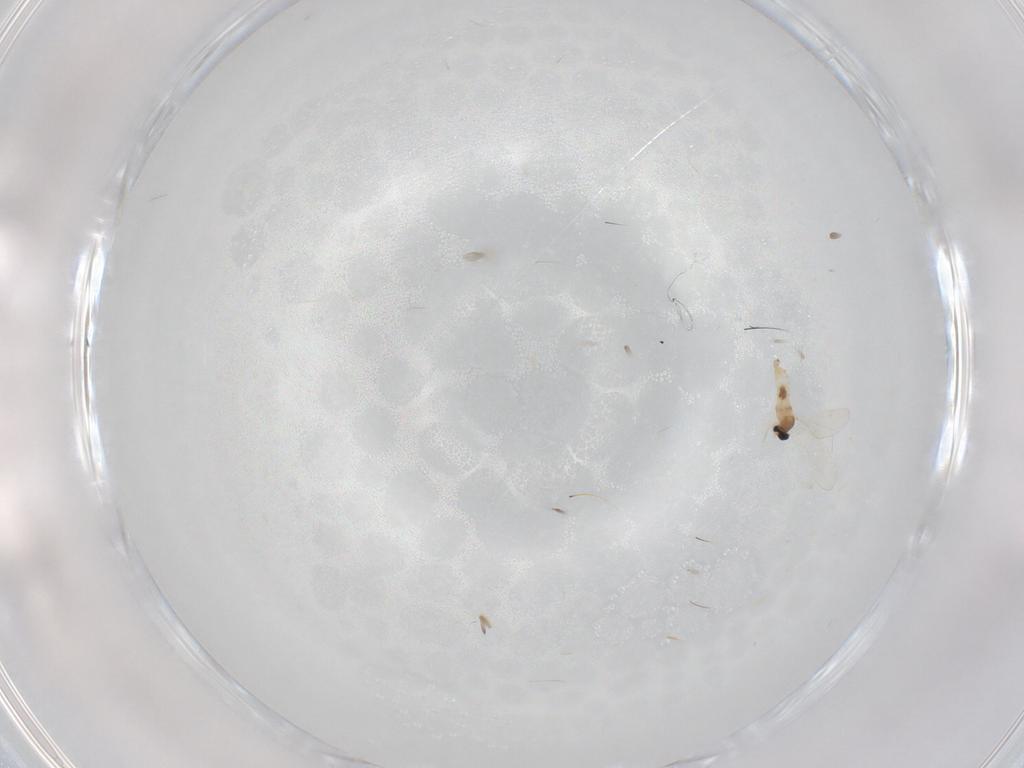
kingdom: Animalia
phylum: Arthropoda
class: Insecta
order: Diptera
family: Cecidomyiidae
